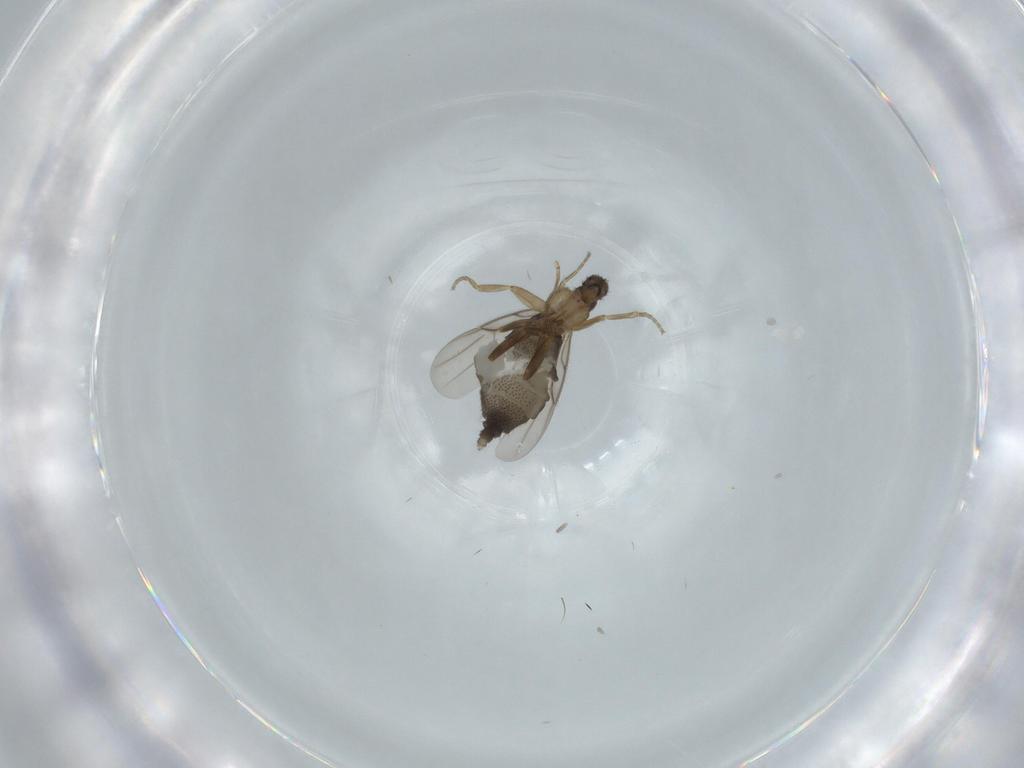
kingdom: Animalia
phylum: Arthropoda
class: Insecta
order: Diptera
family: Phoridae
